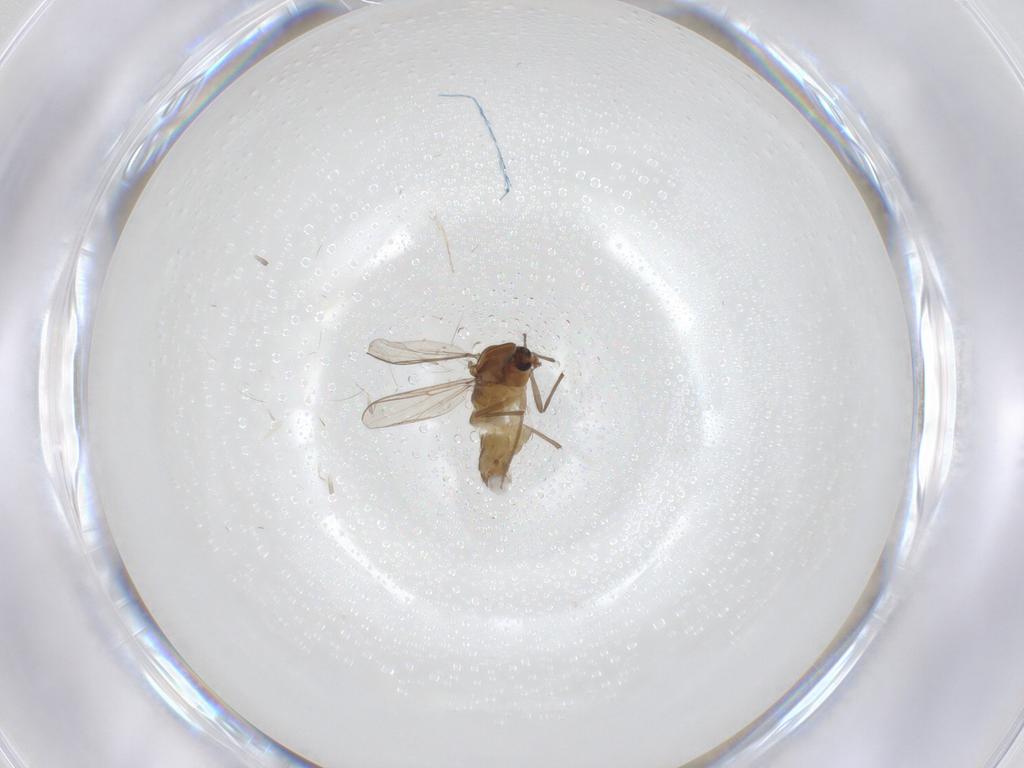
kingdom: Animalia
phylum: Arthropoda
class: Insecta
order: Diptera
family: Chironomidae
